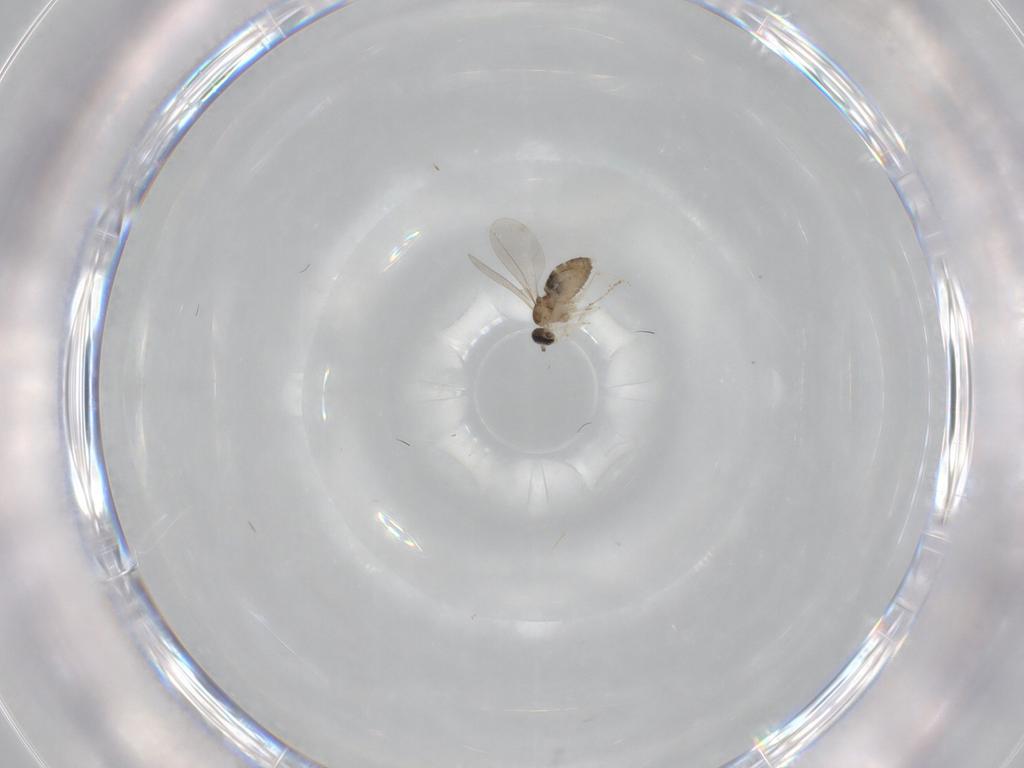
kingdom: Animalia
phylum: Arthropoda
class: Insecta
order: Diptera
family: Cecidomyiidae
